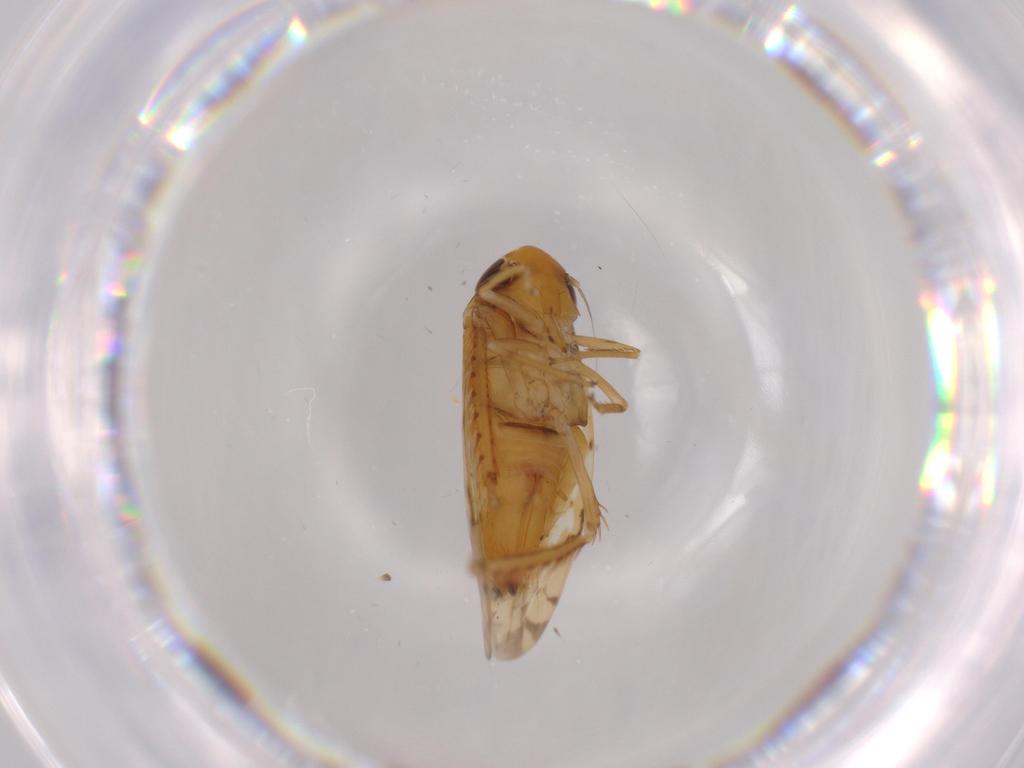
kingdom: Animalia
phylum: Arthropoda
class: Insecta
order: Hemiptera
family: Cicadellidae
